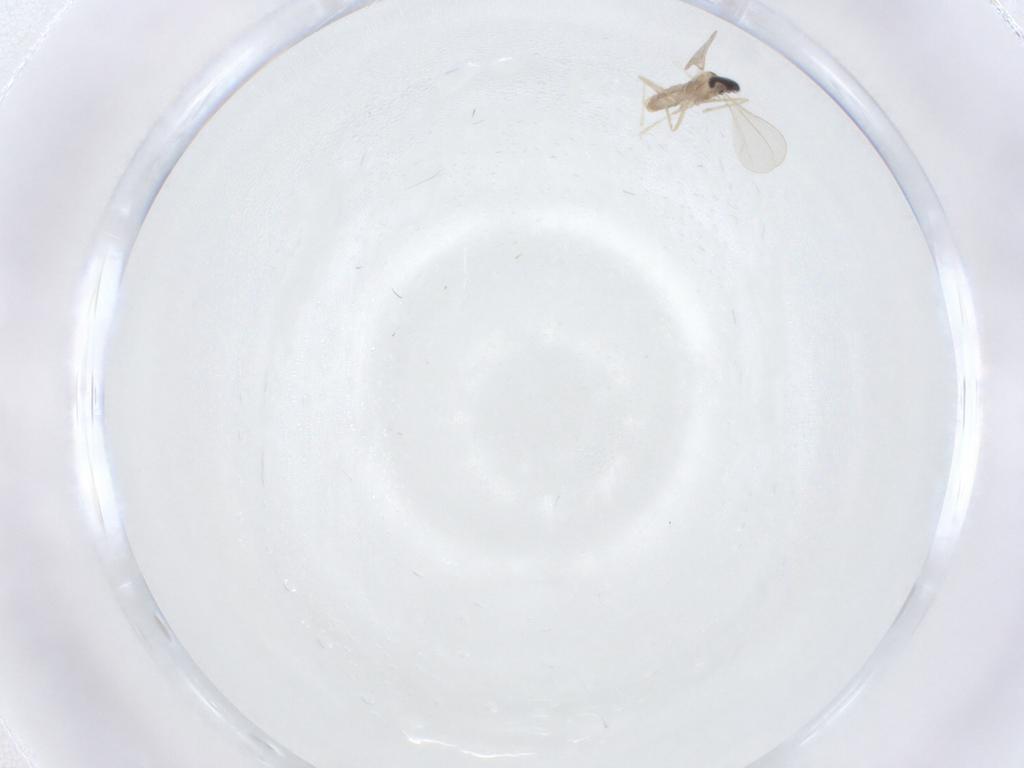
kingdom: Animalia
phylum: Arthropoda
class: Insecta
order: Diptera
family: Cecidomyiidae
